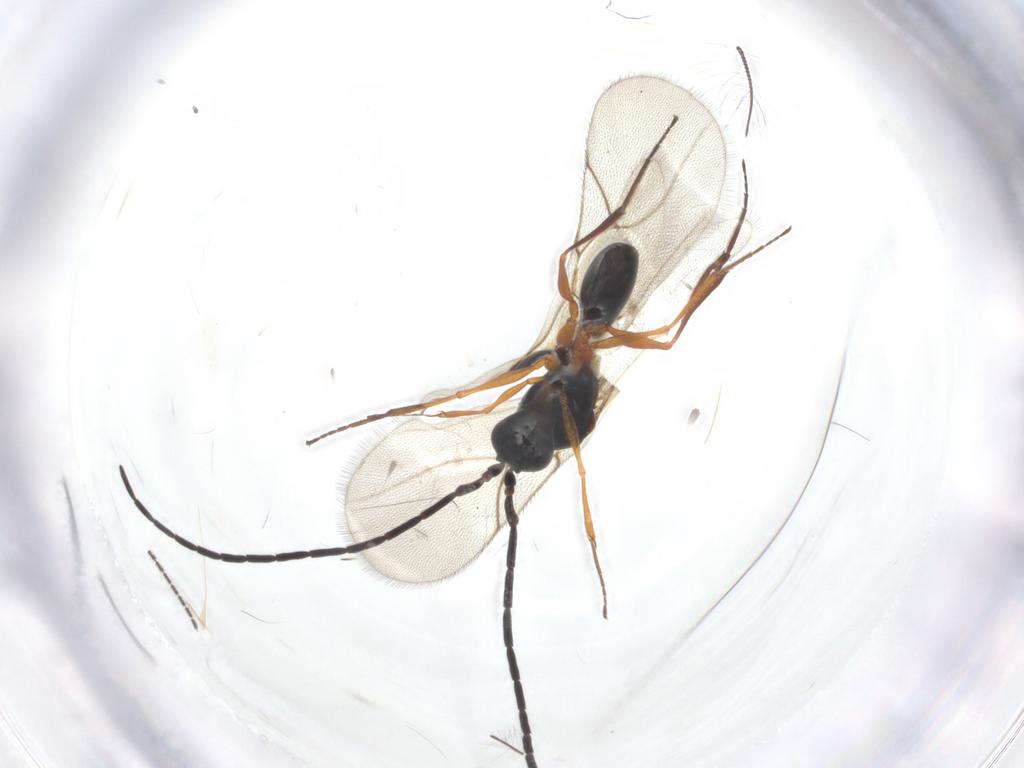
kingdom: Animalia
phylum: Arthropoda
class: Insecta
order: Hymenoptera
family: Figitidae
